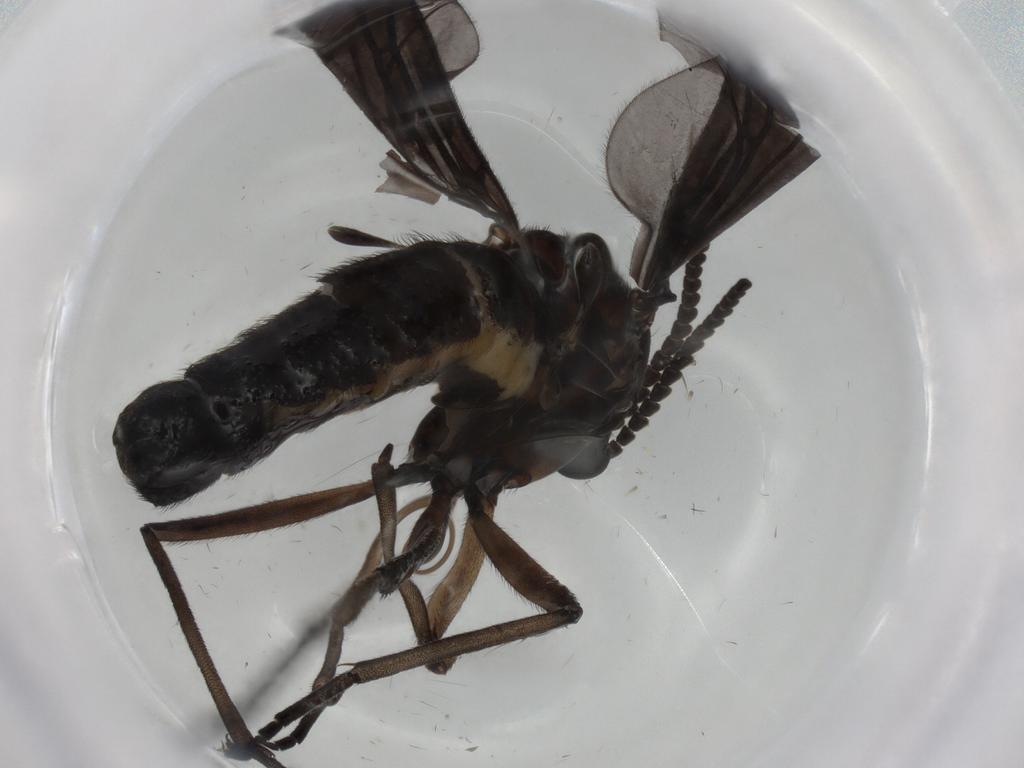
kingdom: Animalia
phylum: Arthropoda
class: Insecta
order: Diptera
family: Sciaridae
